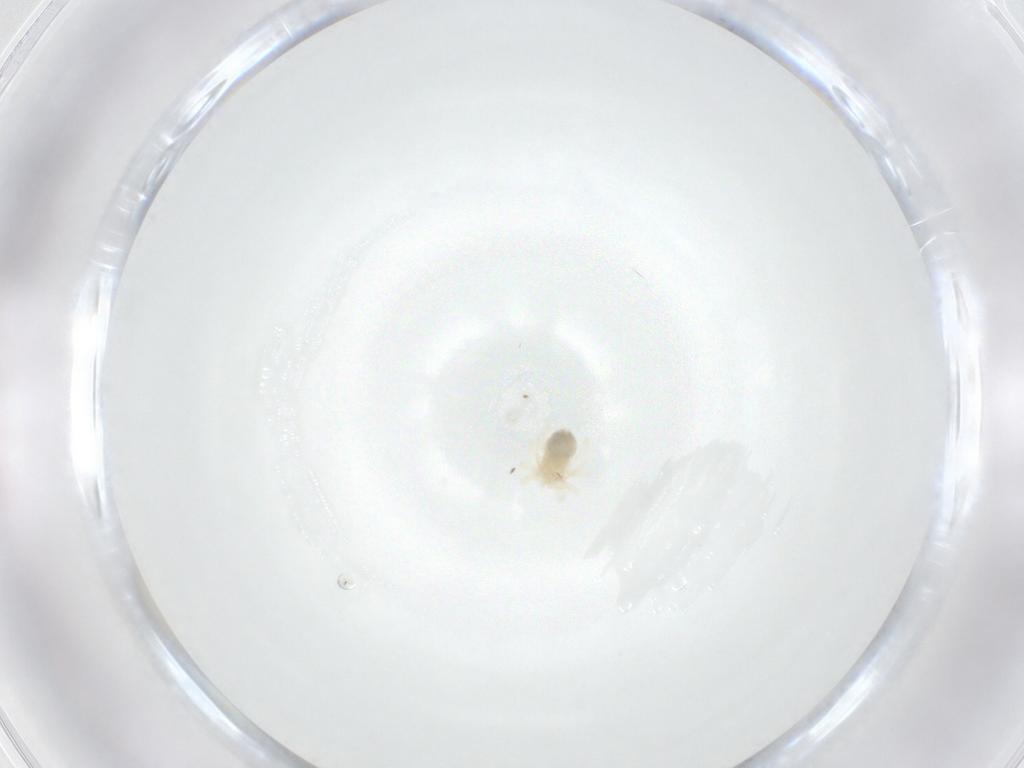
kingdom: Animalia
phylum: Arthropoda
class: Arachnida
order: Trombidiformes
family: Anystidae
